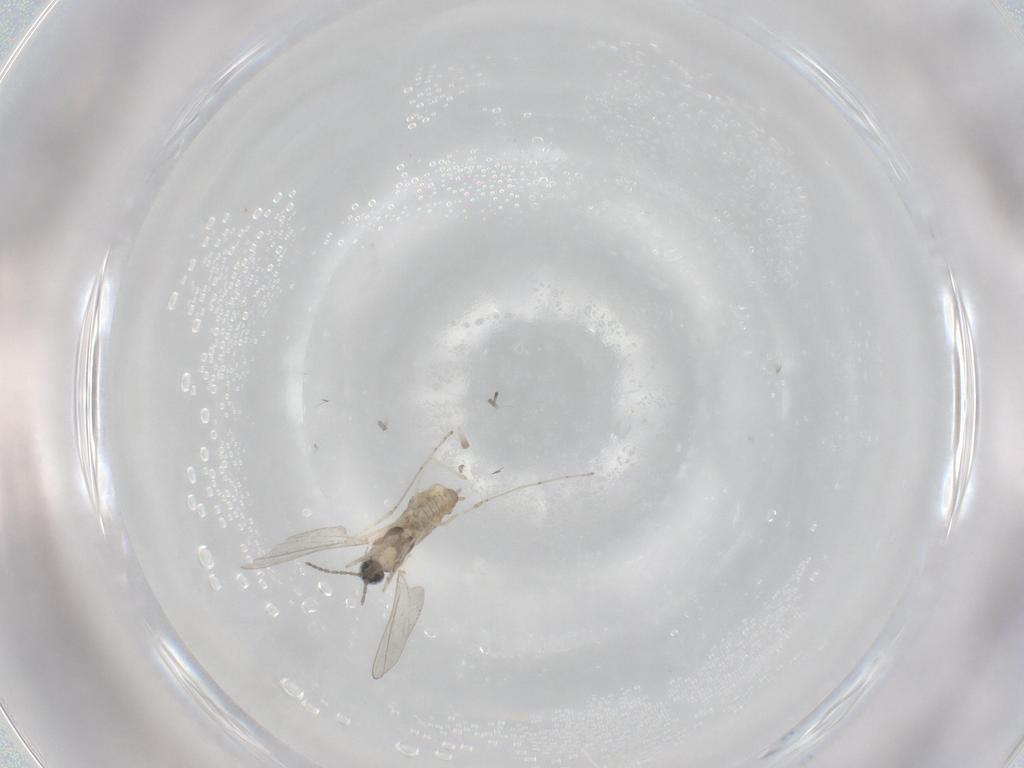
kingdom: Animalia
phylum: Arthropoda
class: Insecta
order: Diptera
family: Cecidomyiidae
